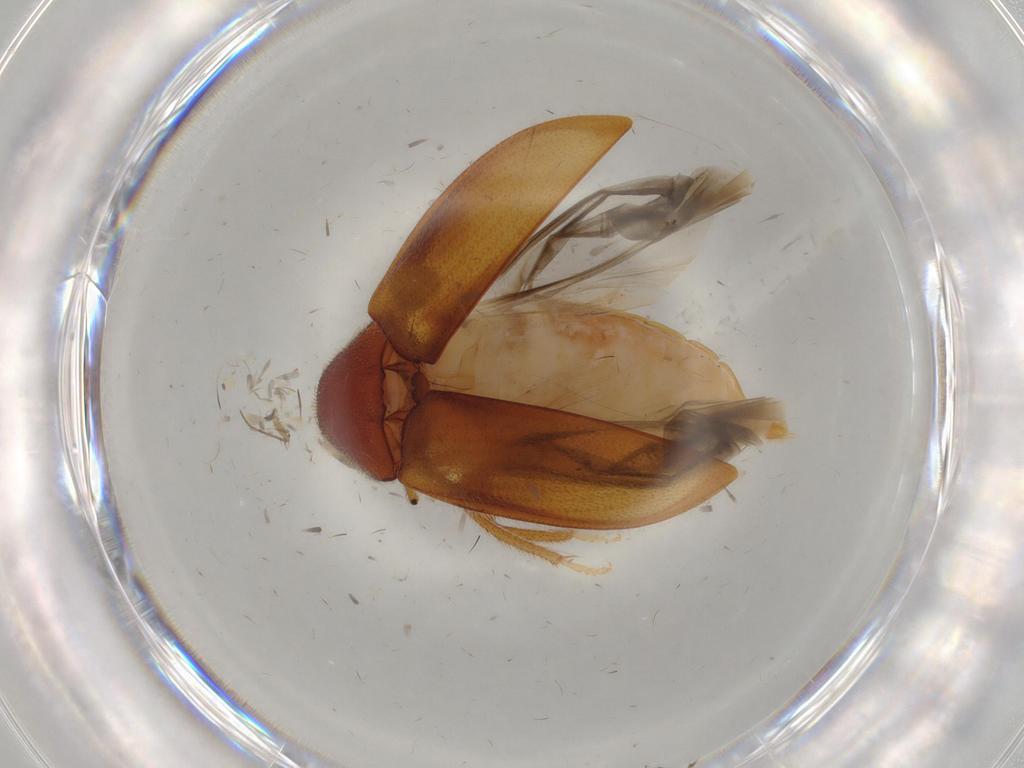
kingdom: Animalia
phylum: Arthropoda
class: Insecta
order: Coleoptera
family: Ptilodactylidae
